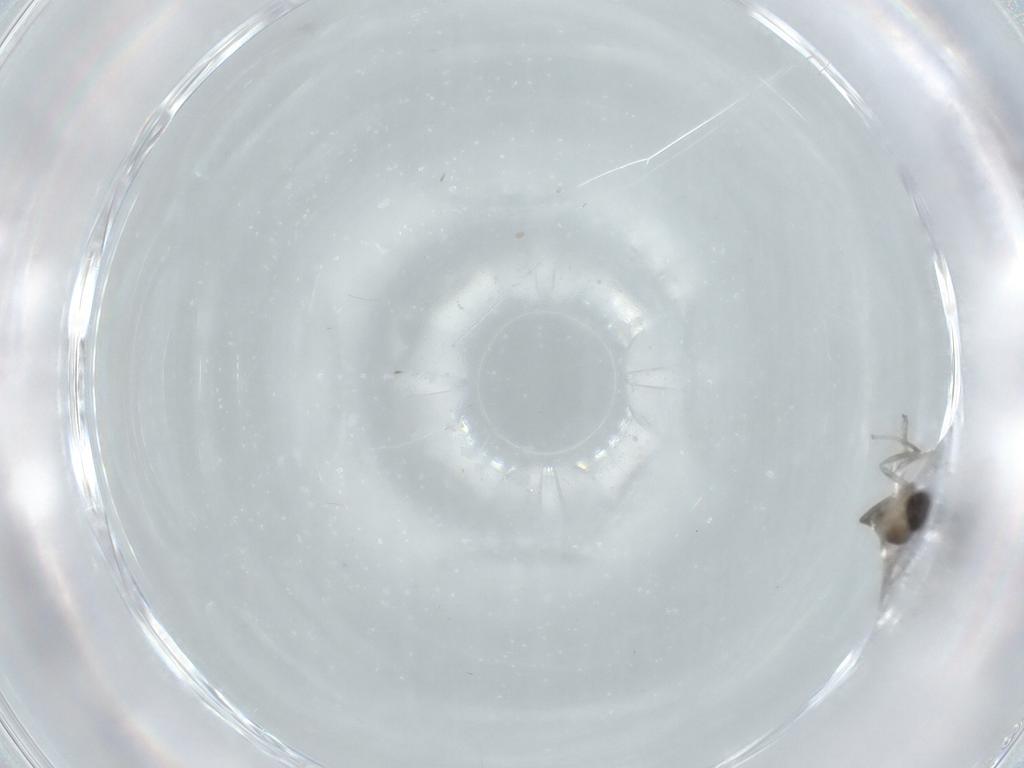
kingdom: Animalia
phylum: Arthropoda
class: Insecta
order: Diptera
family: Cecidomyiidae
